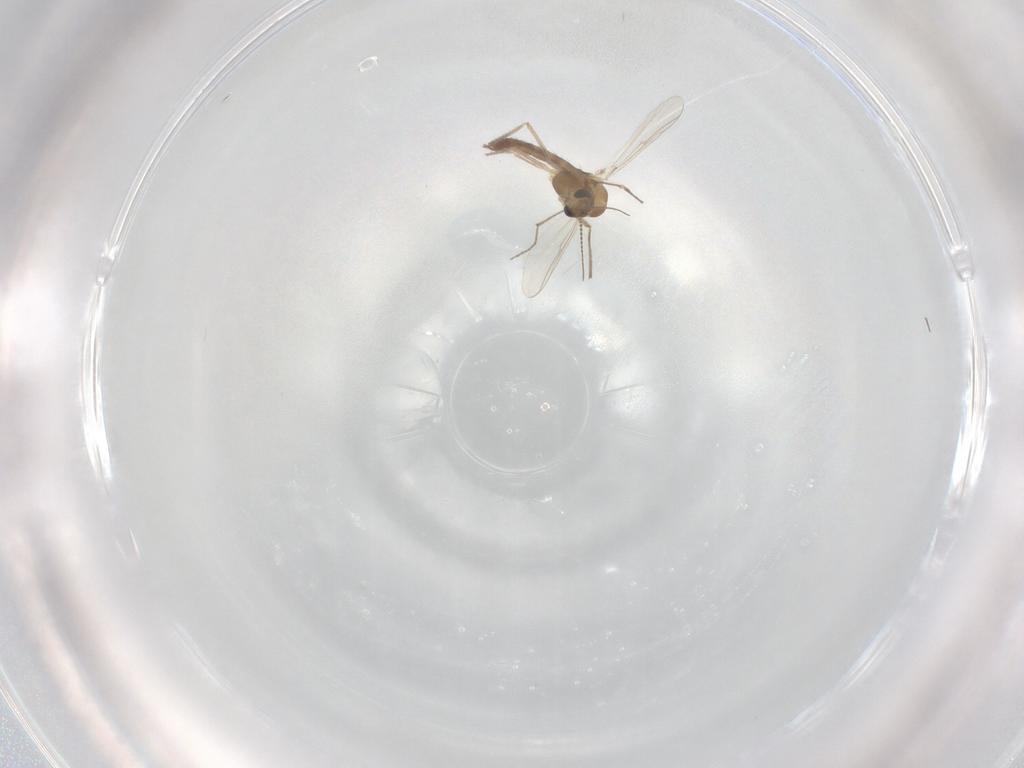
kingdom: Animalia
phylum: Arthropoda
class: Insecta
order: Diptera
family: Chironomidae
